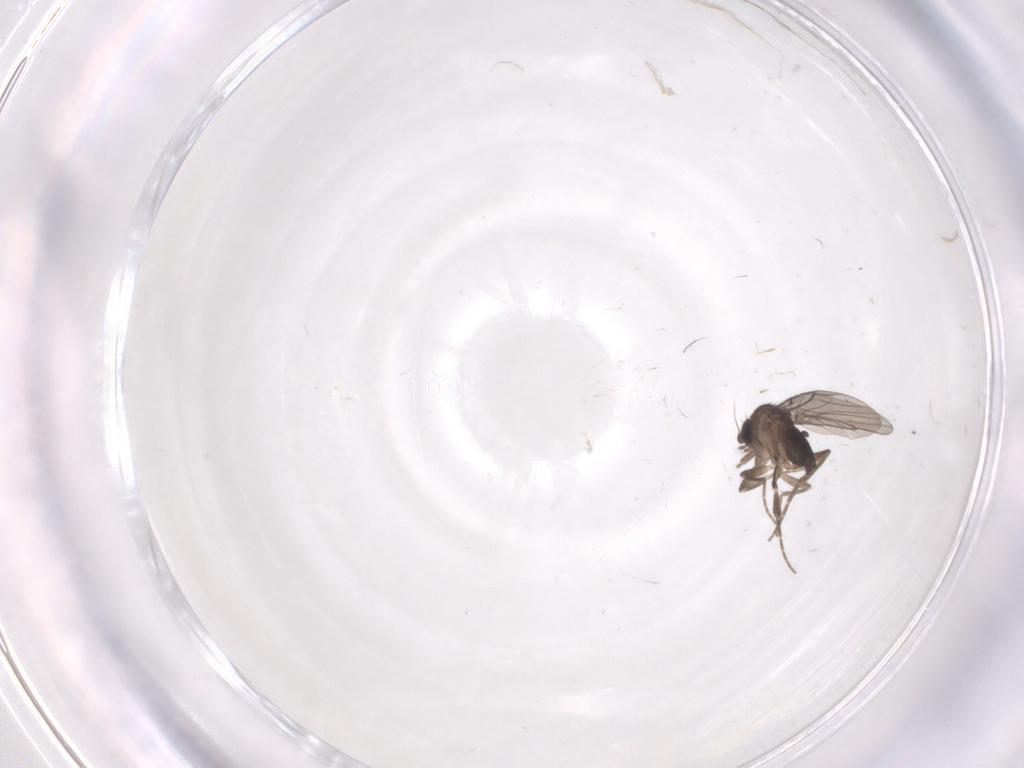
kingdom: Animalia
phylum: Arthropoda
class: Insecta
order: Diptera
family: Phoridae
